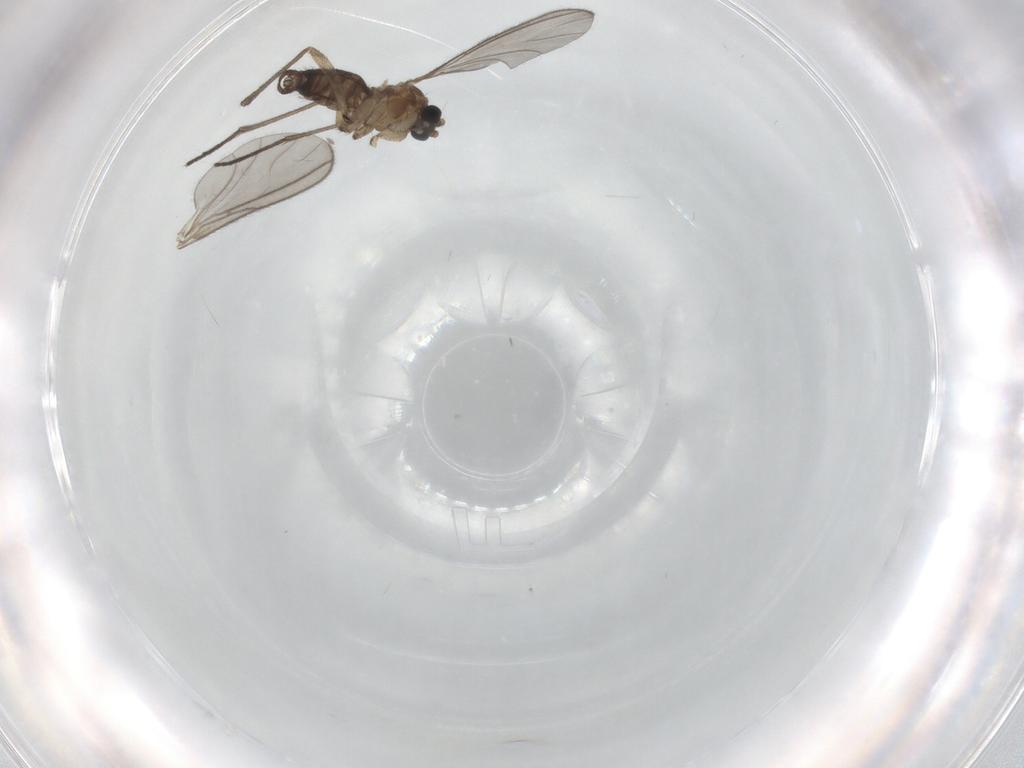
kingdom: Animalia
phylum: Arthropoda
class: Insecta
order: Diptera
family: Sciaridae
